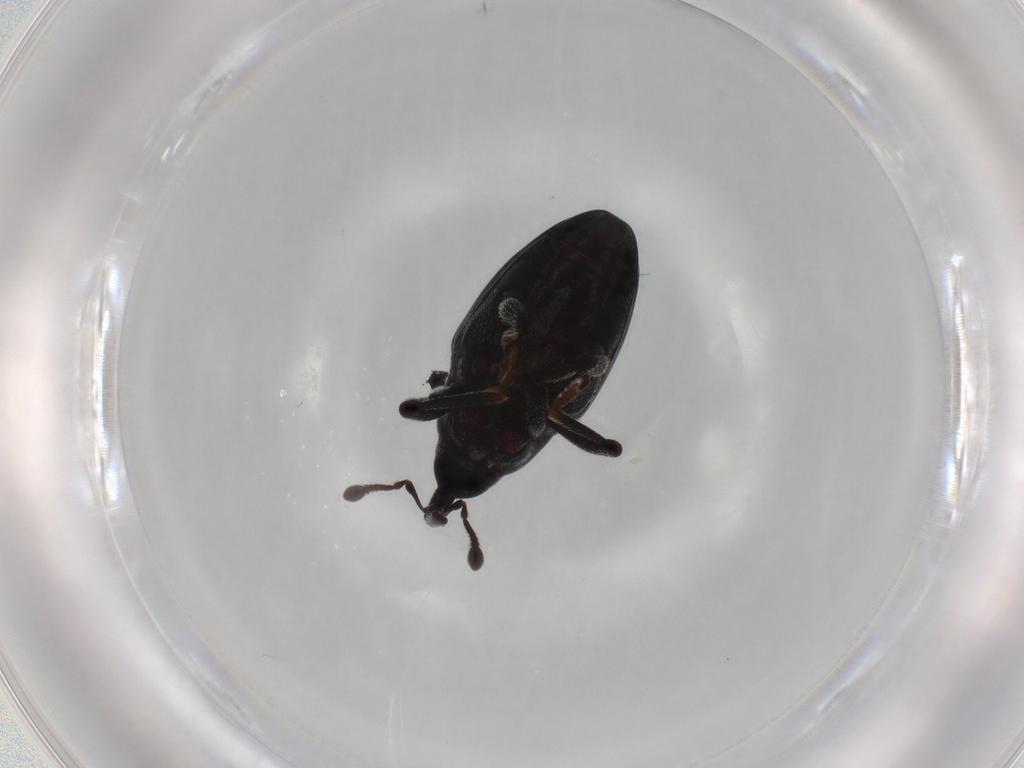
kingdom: Animalia
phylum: Arthropoda
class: Insecta
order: Coleoptera
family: Curculionidae
